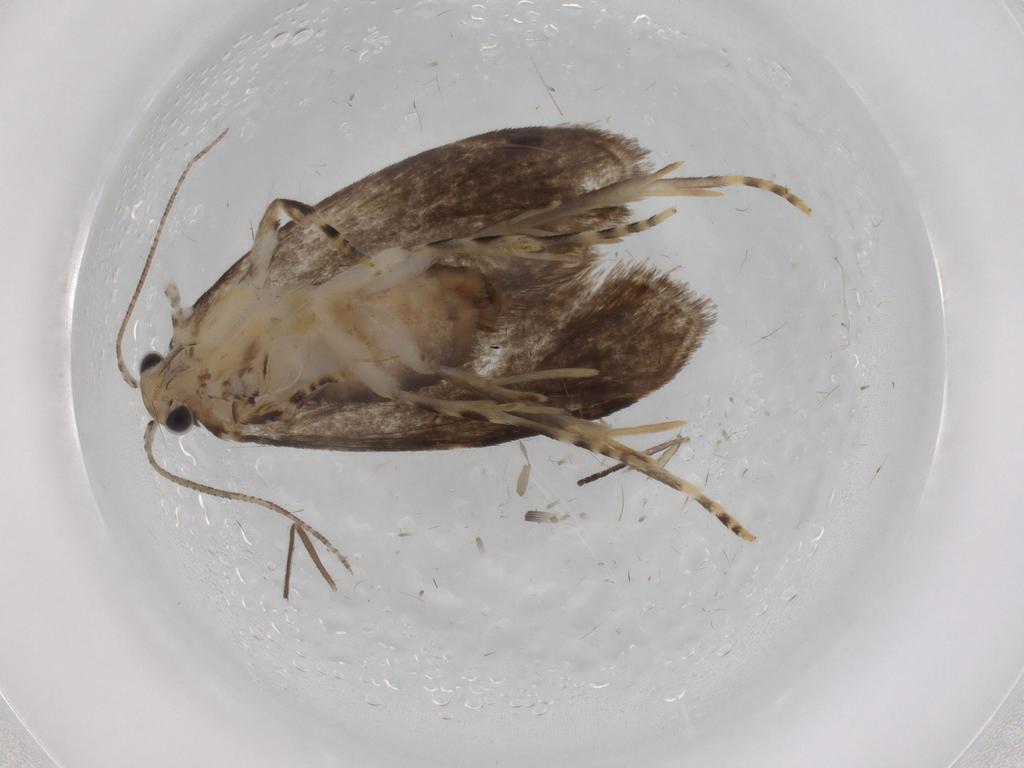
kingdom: Animalia
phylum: Arthropoda
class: Insecta
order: Lepidoptera
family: Tineidae
